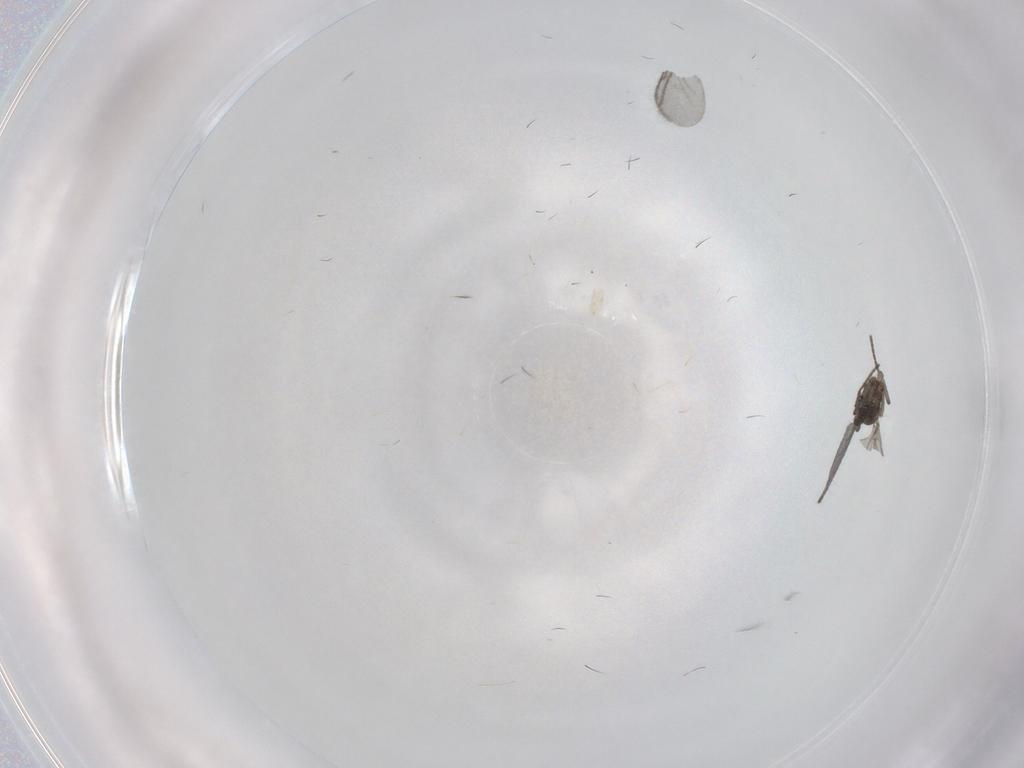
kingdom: Animalia
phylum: Arthropoda
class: Insecta
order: Diptera
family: Sciaridae
